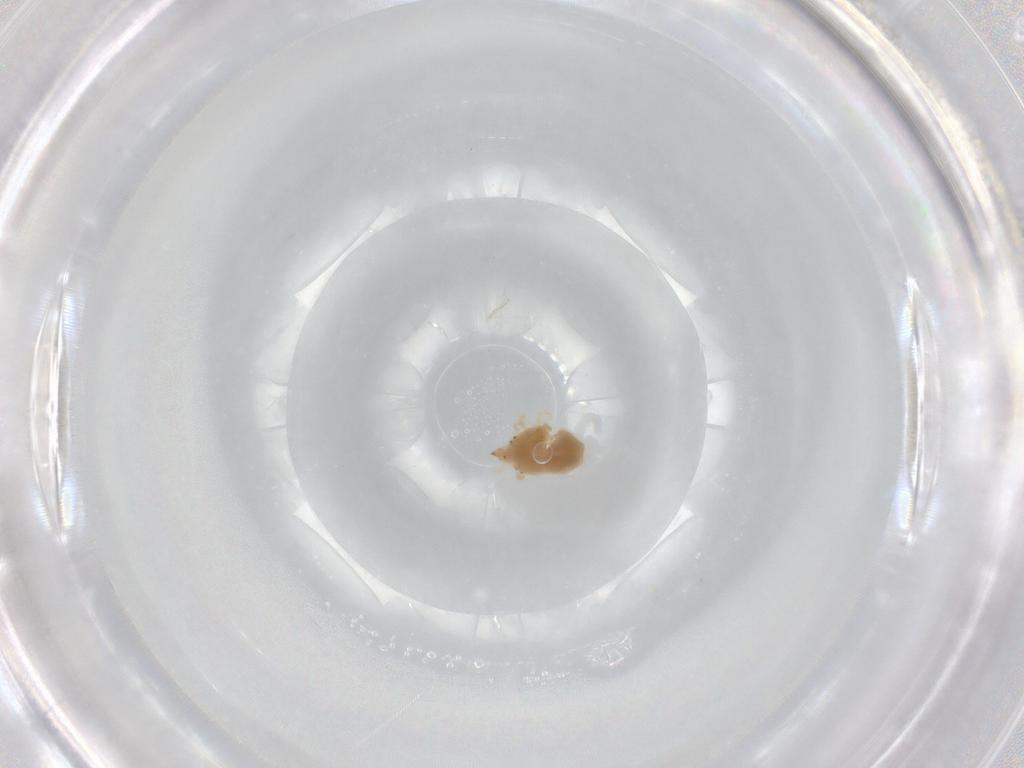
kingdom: Animalia
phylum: Arthropoda
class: Arachnida
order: Trombidiformes
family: Bdellidae
